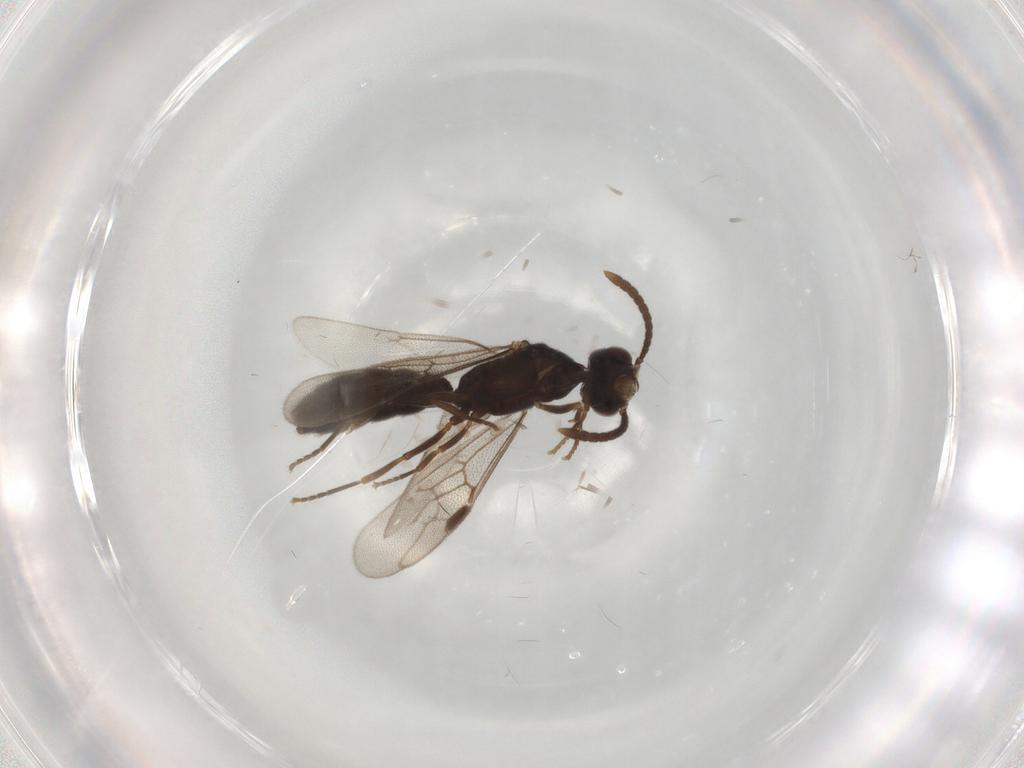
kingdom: Animalia
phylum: Arthropoda
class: Insecta
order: Hymenoptera
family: Formicidae
